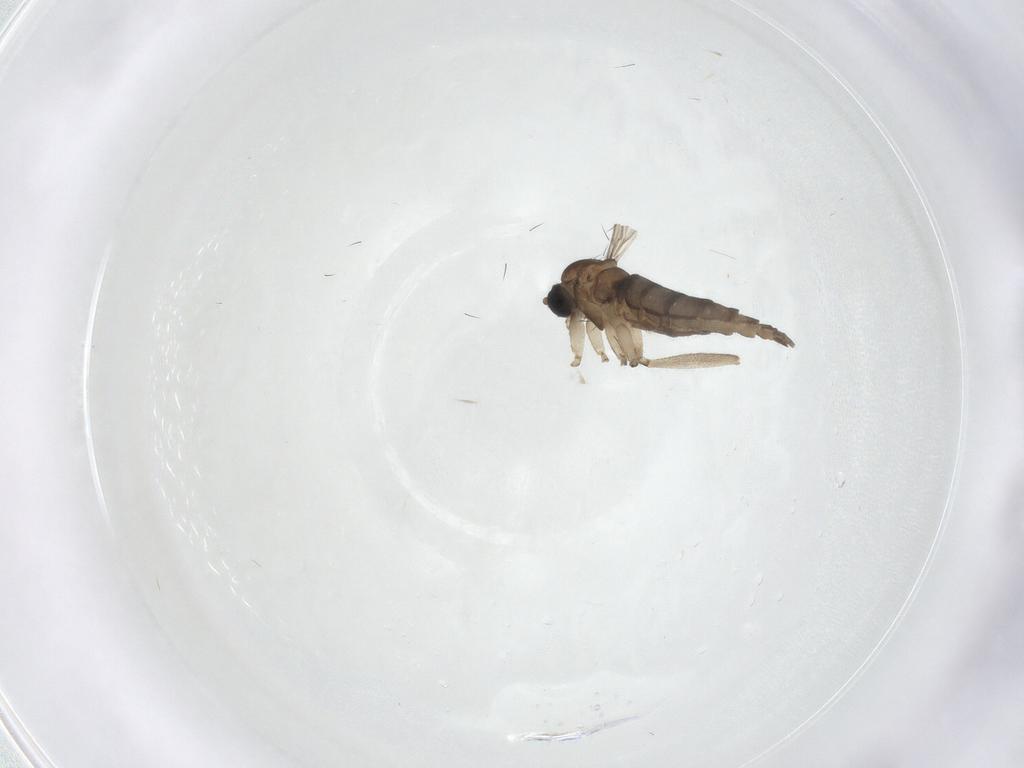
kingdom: Animalia
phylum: Arthropoda
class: Insecta
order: Diptera
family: Sciaridae
